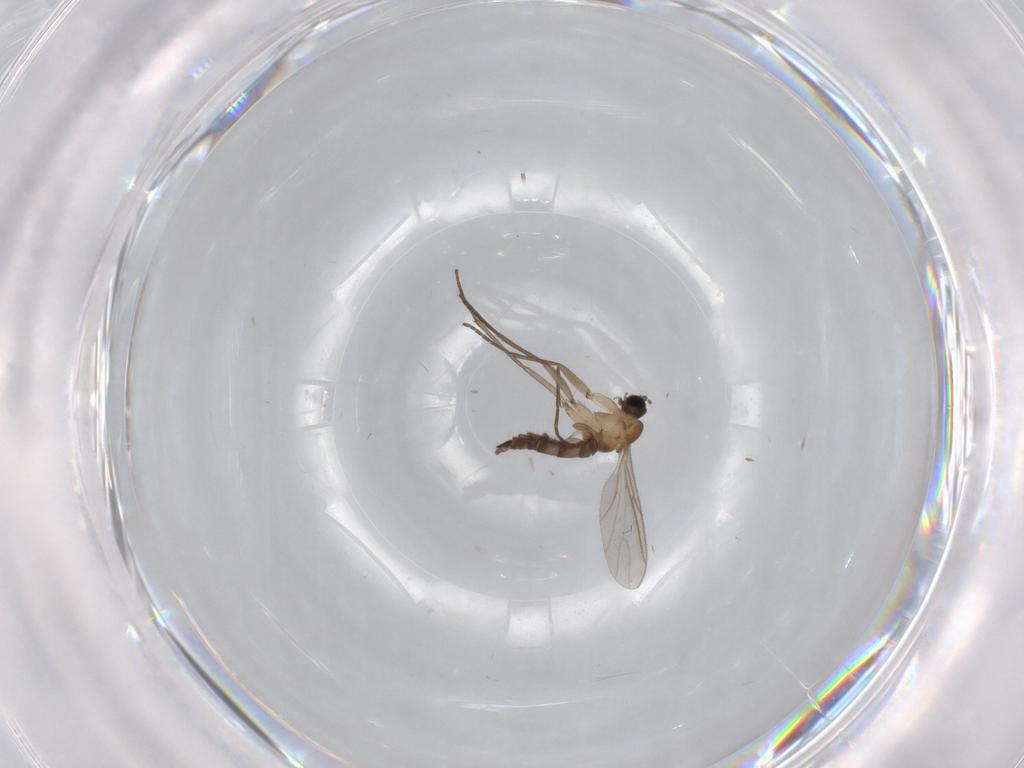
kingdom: Animalia
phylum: Arthropoda
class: Insecta
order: Diptera
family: Sciaridae
